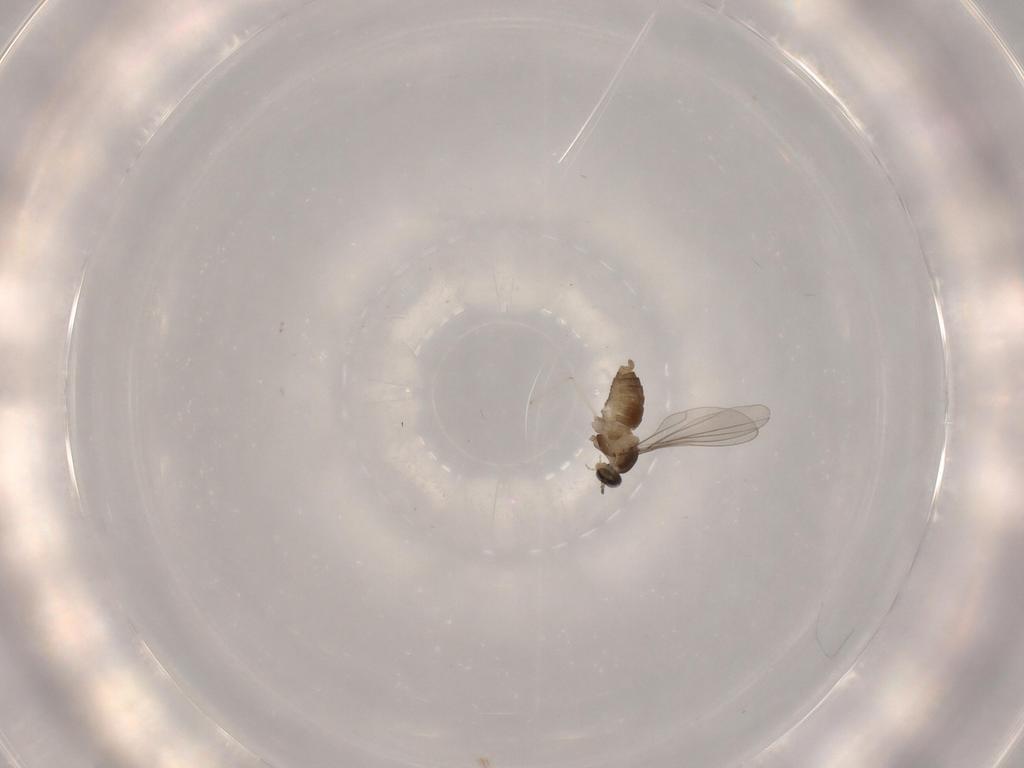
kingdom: Animalia
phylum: Arthropoda
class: Insecta
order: Diptera
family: Cecidomyiidae
